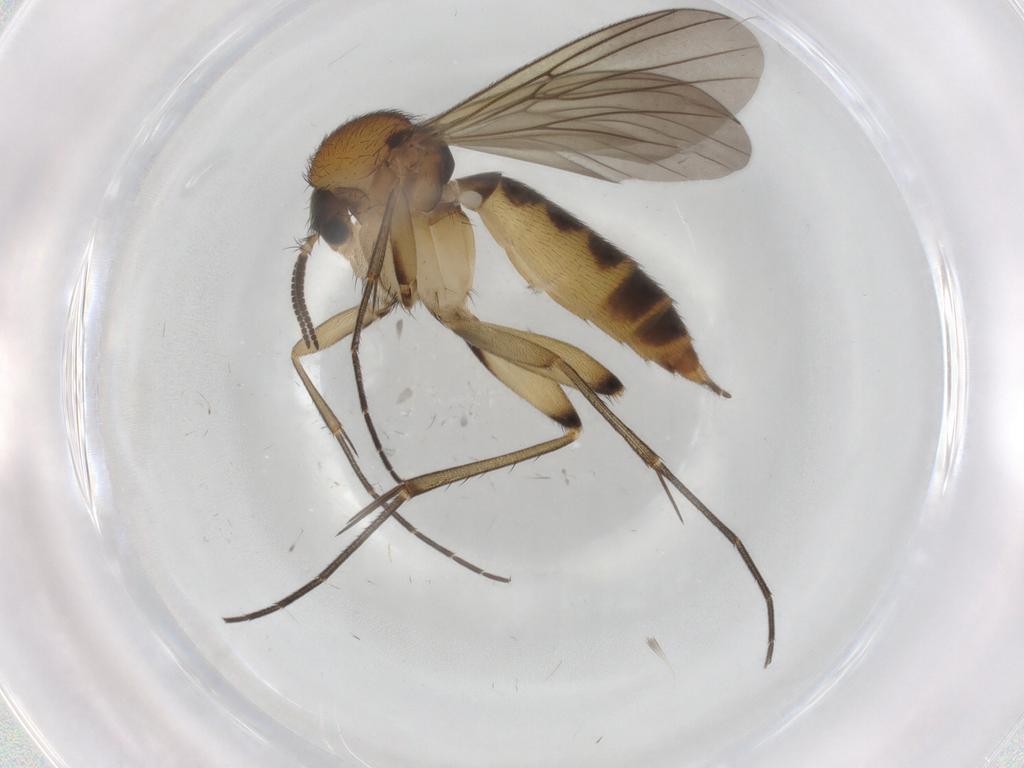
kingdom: Animalia
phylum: Arthropoda
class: Insecta
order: Diptera
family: Mycetophilidae
